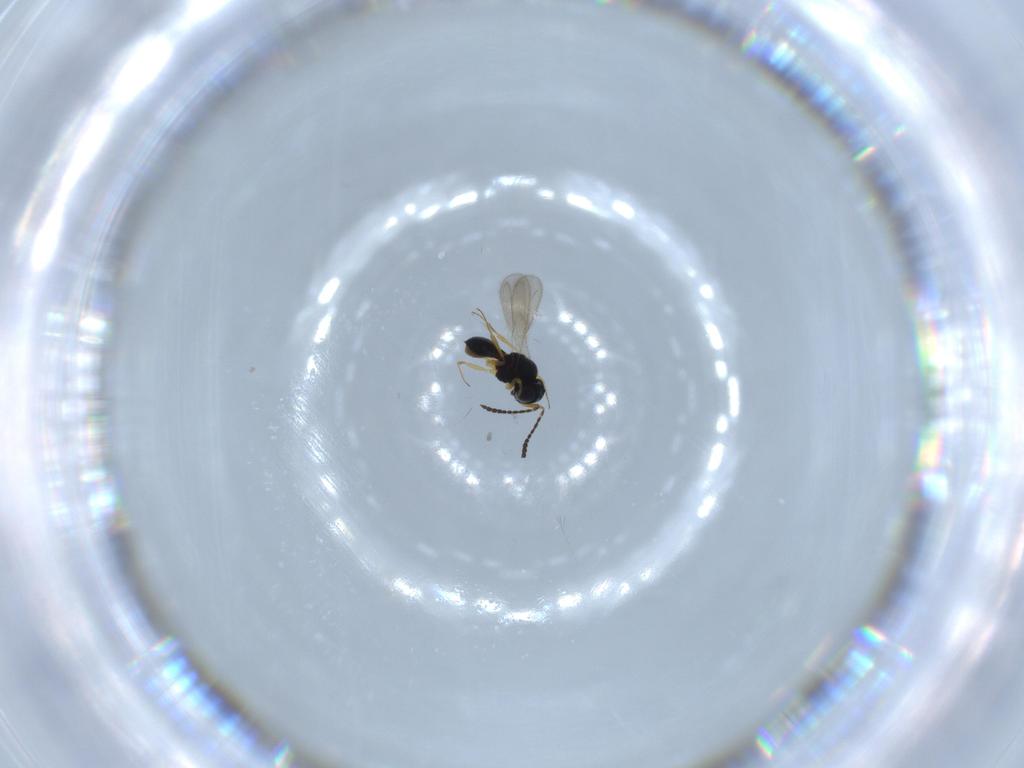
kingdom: Animalia
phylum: Arthropoda
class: Insecta
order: Hymenoptera
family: Scelionidae
